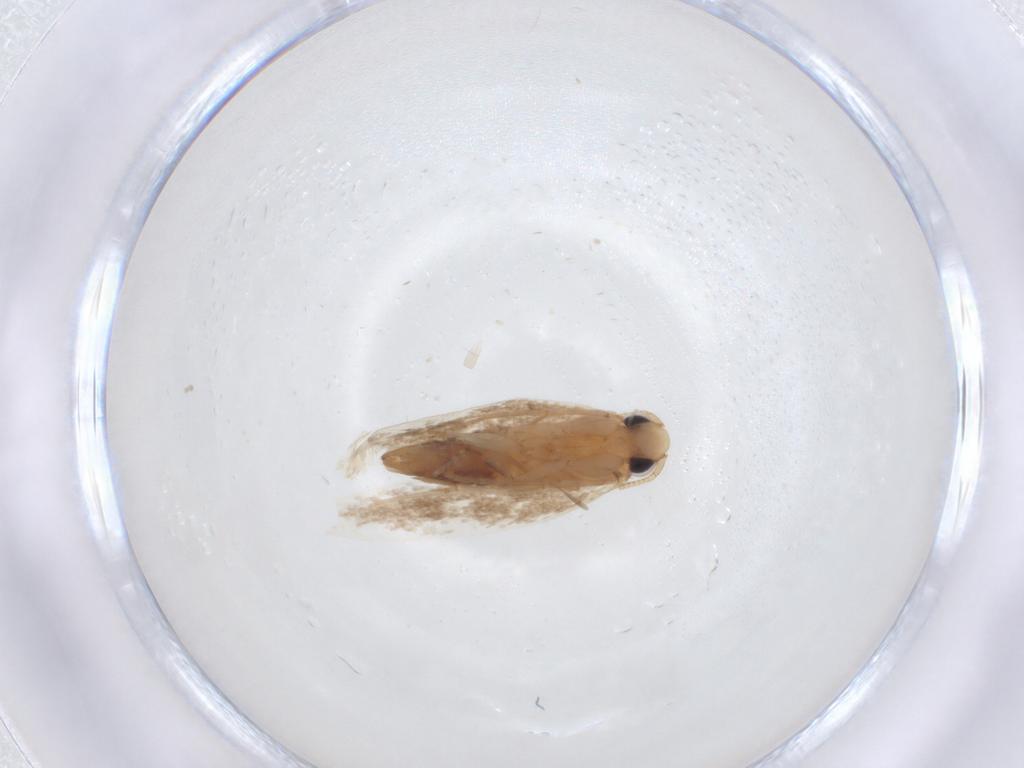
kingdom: Animalia
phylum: Arthropoda
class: Insecta
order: Lepidoptera
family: Tineidae
